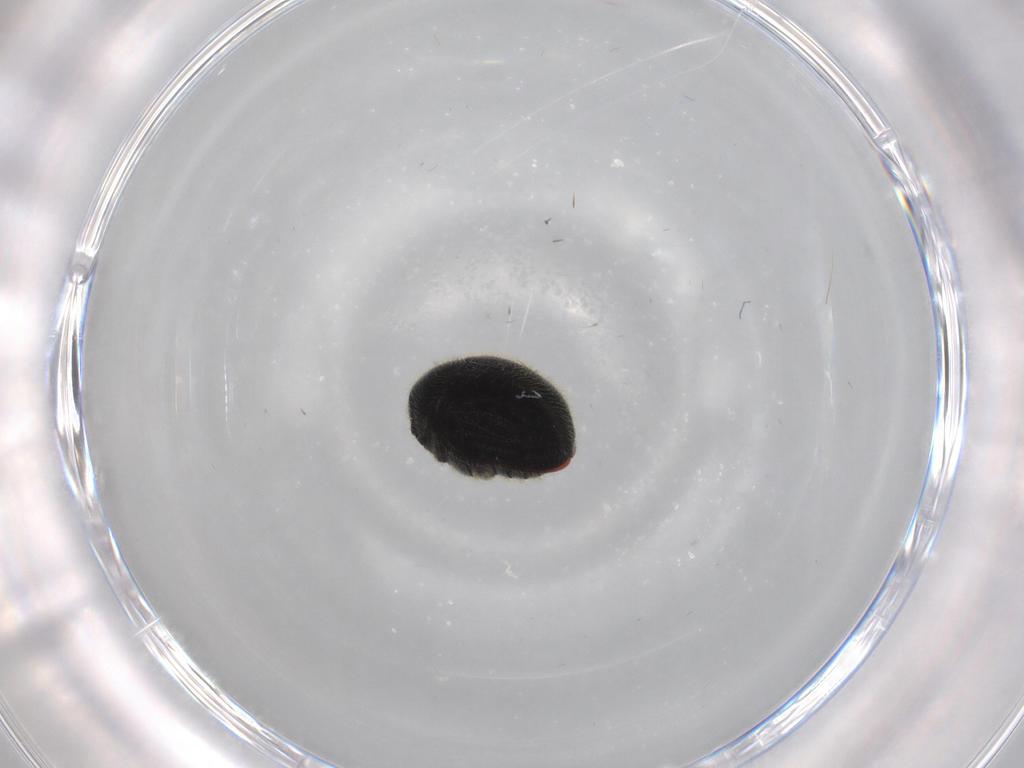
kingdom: Animalia
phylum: Arthropoda
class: Insecta
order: Coleoptera
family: Ptinidae
